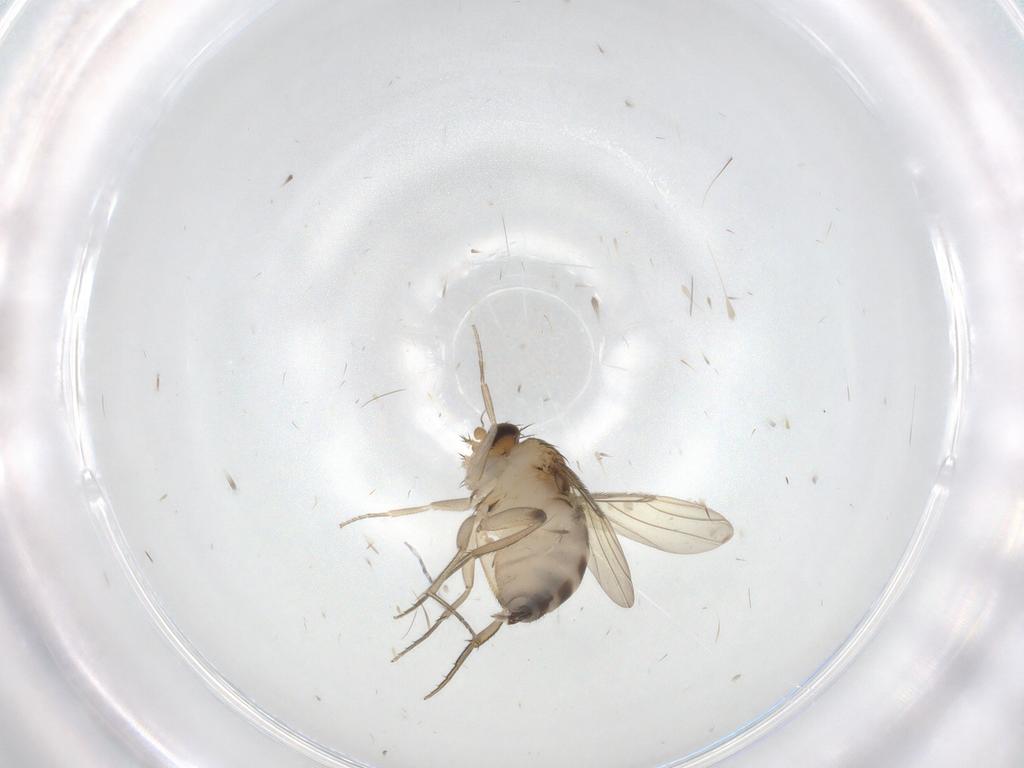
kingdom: Animalia
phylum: Arthropoda
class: Insecta
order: Diptera
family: Phoridae
